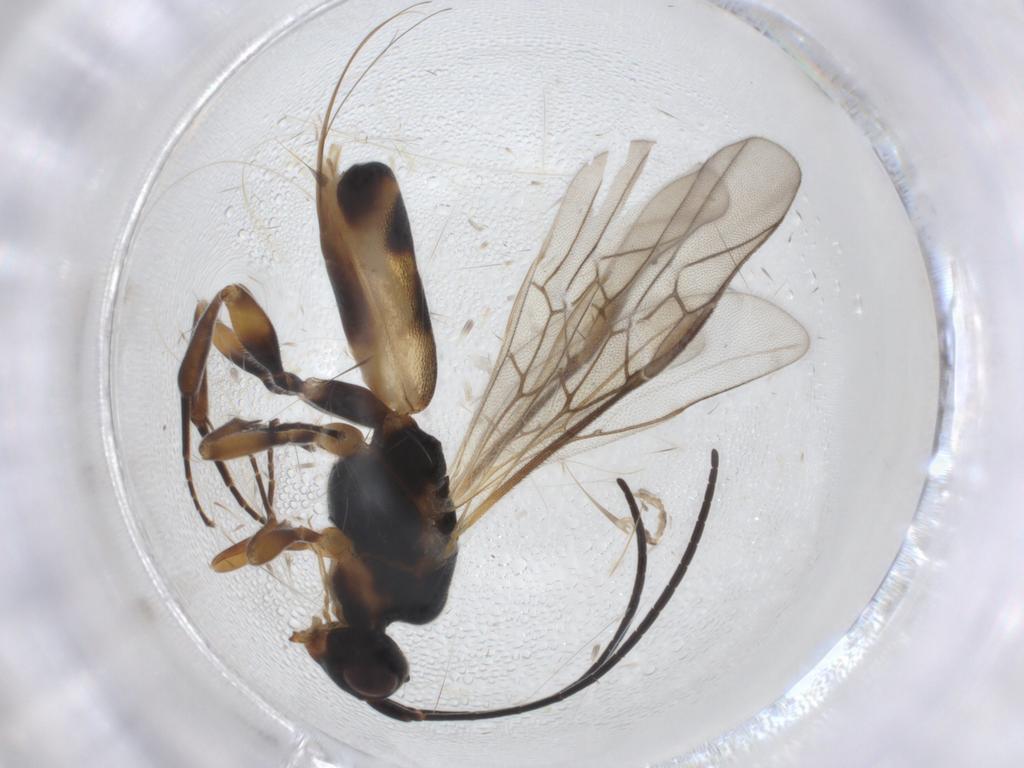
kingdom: Animalia
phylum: Arthropoda
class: Insecta
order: Hymenoptera
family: Braconidae
